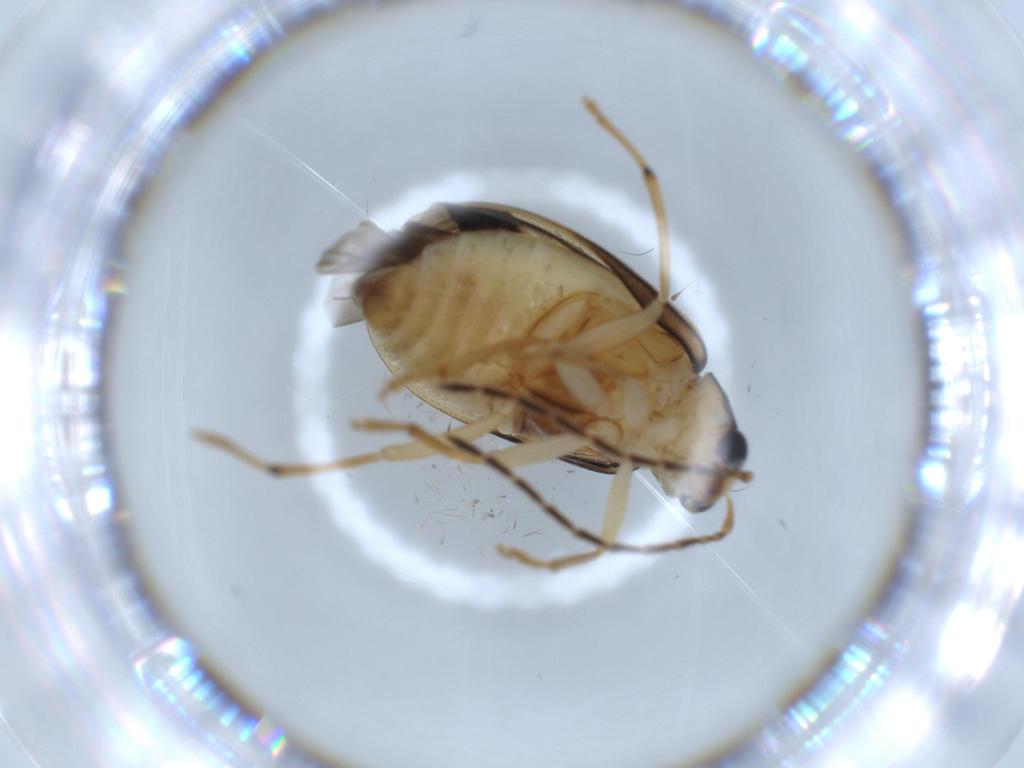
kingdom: Animalia
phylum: Arthropoda
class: Insecta
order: Coleoptera
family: Chrysomelidae
